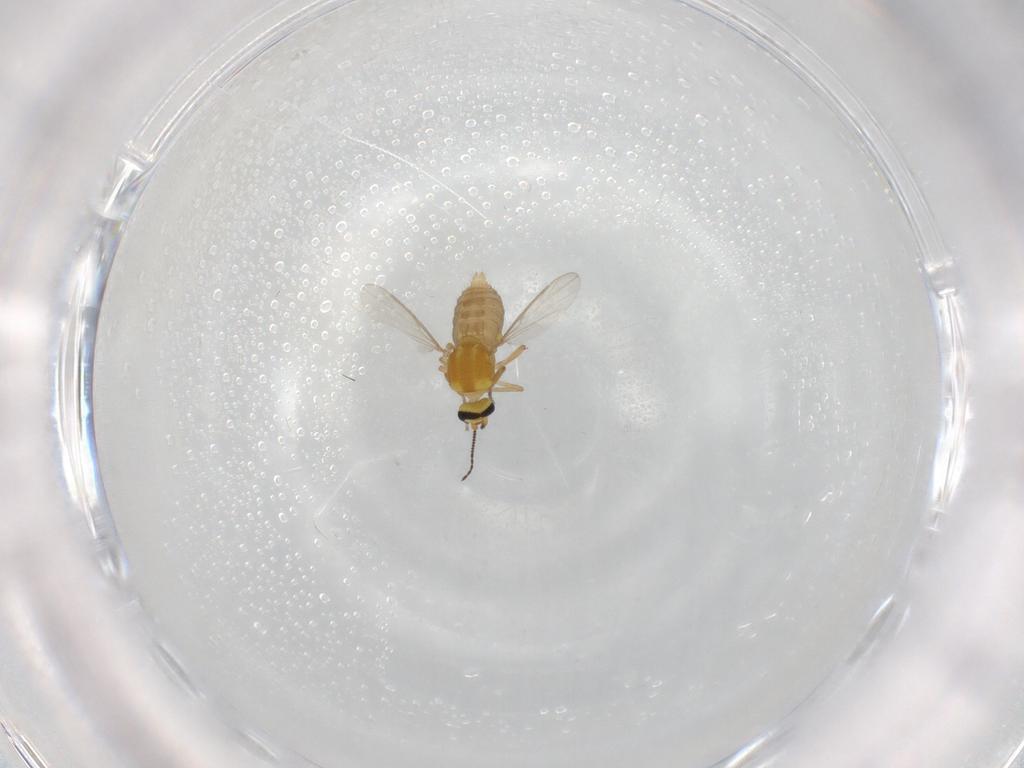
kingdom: Animalia
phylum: Arthropoda
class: Insecta
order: Diptera
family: Ceratopogonidae
